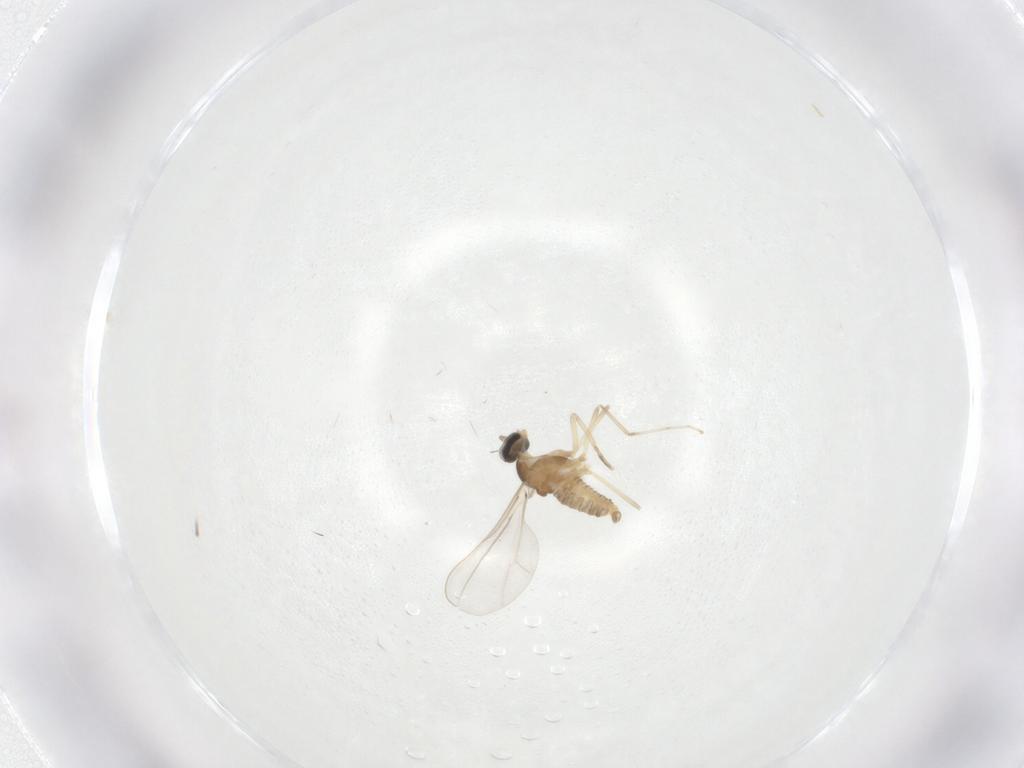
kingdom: Animalia
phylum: Arthropoda
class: Insecta
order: Diptera
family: Cecidomyiidae
